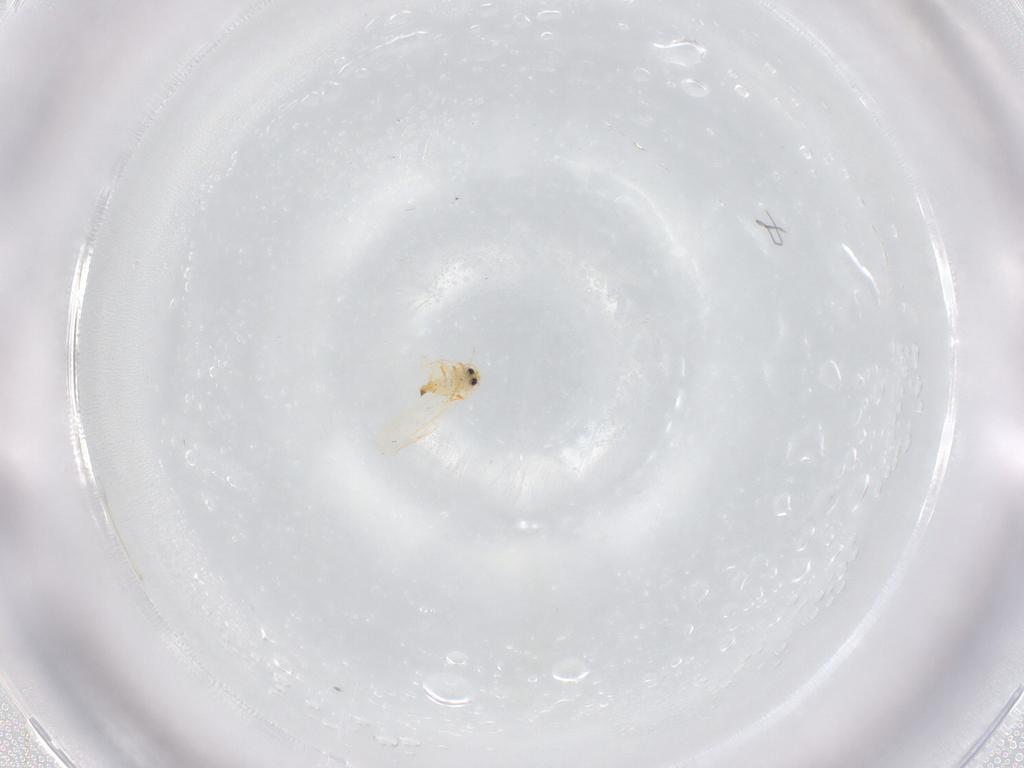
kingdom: Animalia
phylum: Arthropoda
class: Insecta
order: Hemiptera
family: Aleyrodidae
